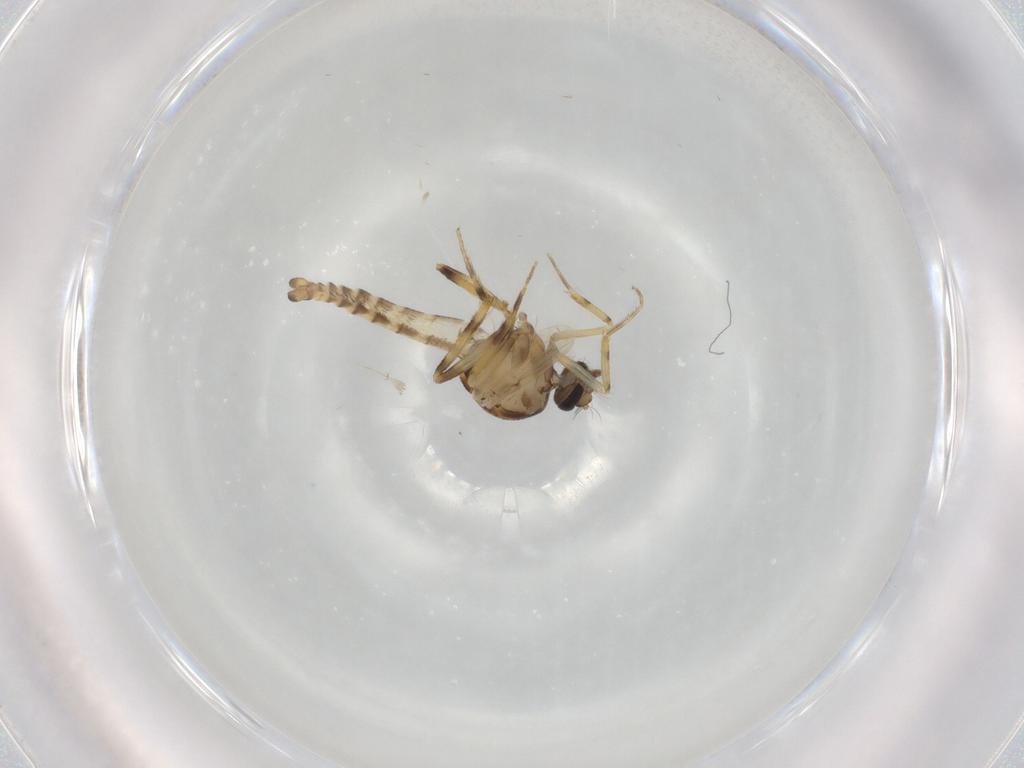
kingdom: Animalia
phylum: Arthropoda
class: Insecta
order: Diptera
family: Ceratopogonidae
